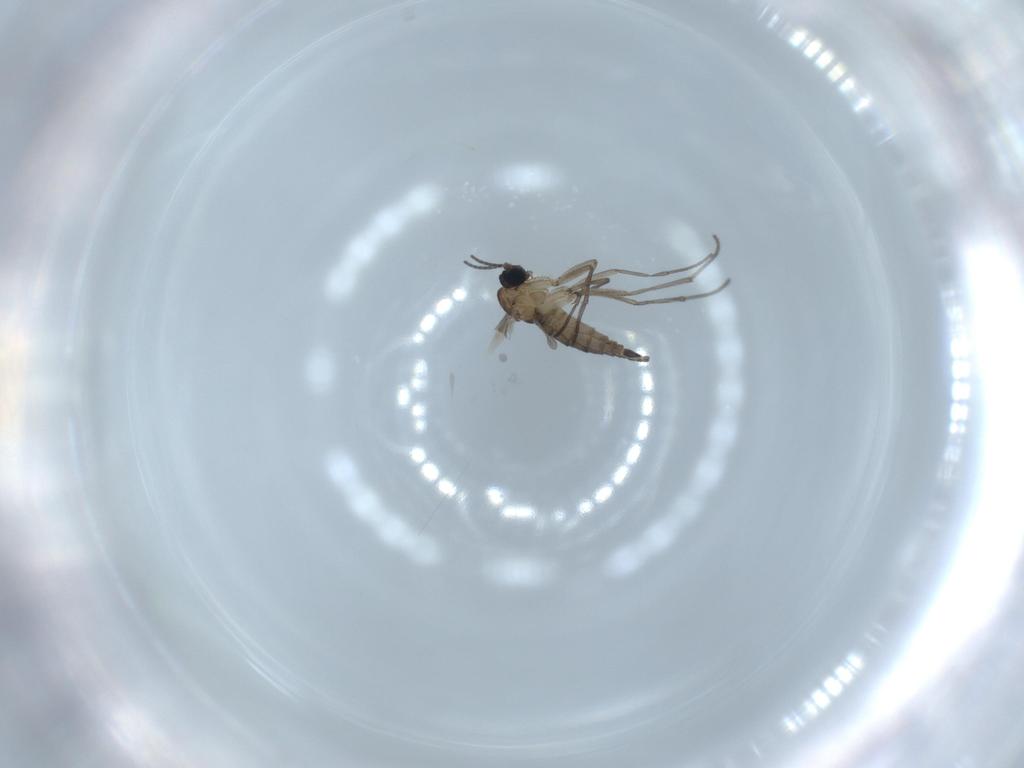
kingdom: Animalia
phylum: Arthropoda
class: Insecta
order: Diptera
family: Sciaridae
